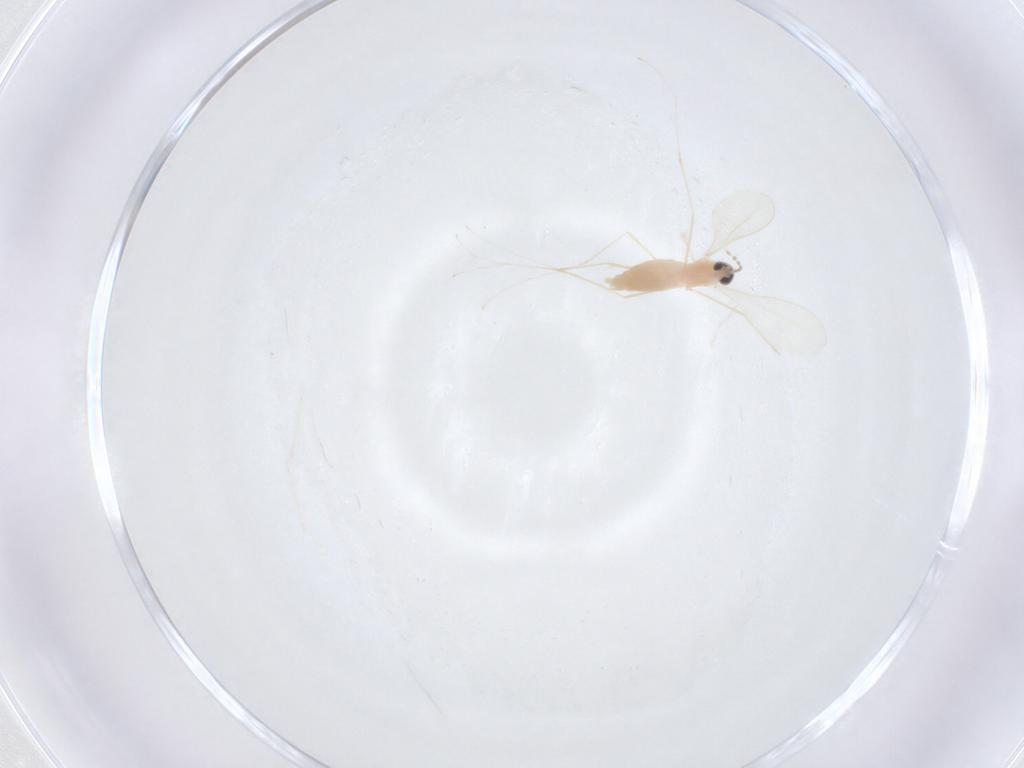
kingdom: Animalia
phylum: Arthropoda
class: Insecta
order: Diptera
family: Cecidomyiidae
